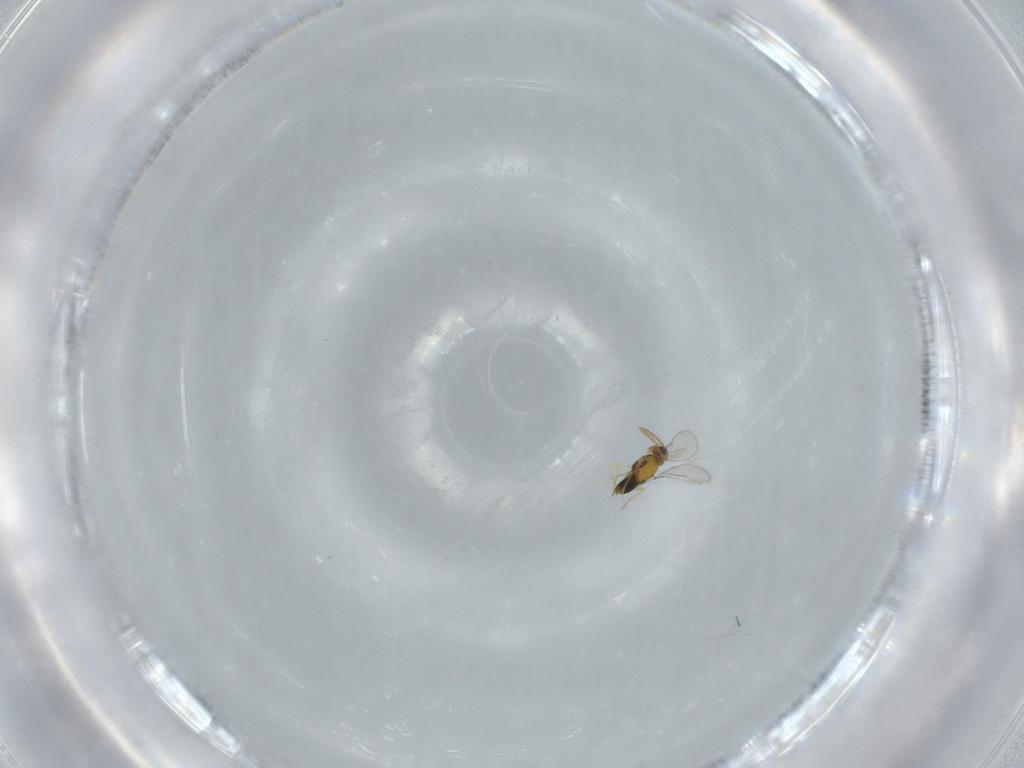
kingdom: Animalia
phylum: Arthropoda
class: Insecta
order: Hymenoptera
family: Aphelinidae
